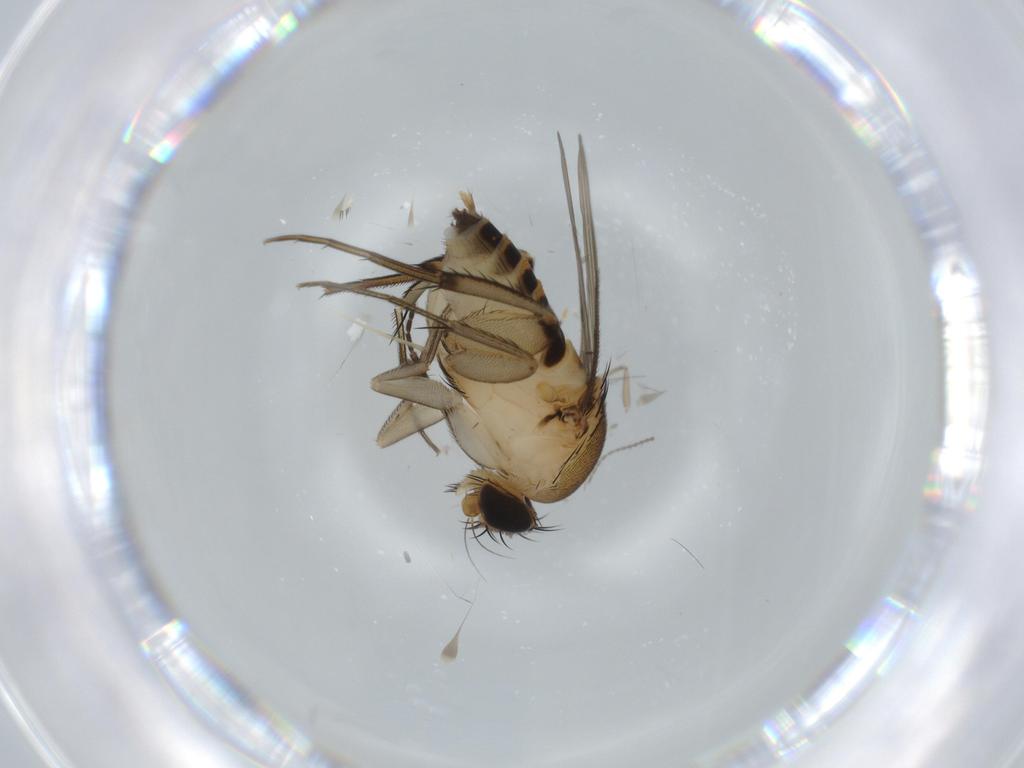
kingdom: Animalia
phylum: Arthropoda
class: Insecta
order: Diptera
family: Phoridae
